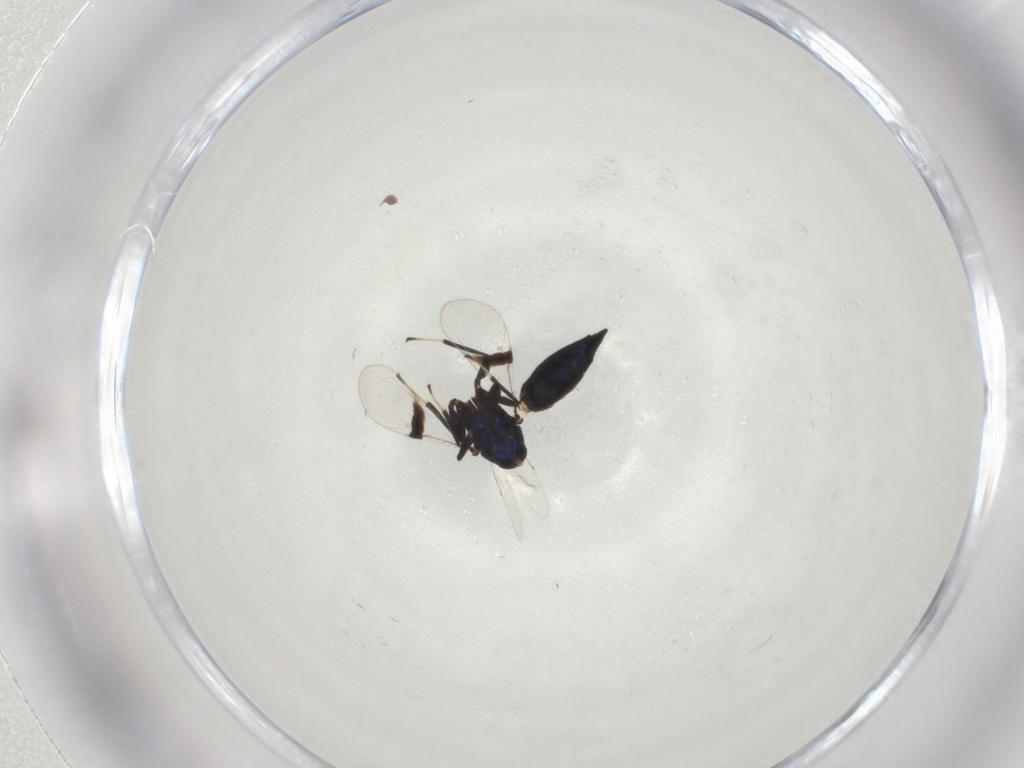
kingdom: Animalia
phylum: Arthropoda
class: Insecta
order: Hymenoptera
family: Pteromalidae
